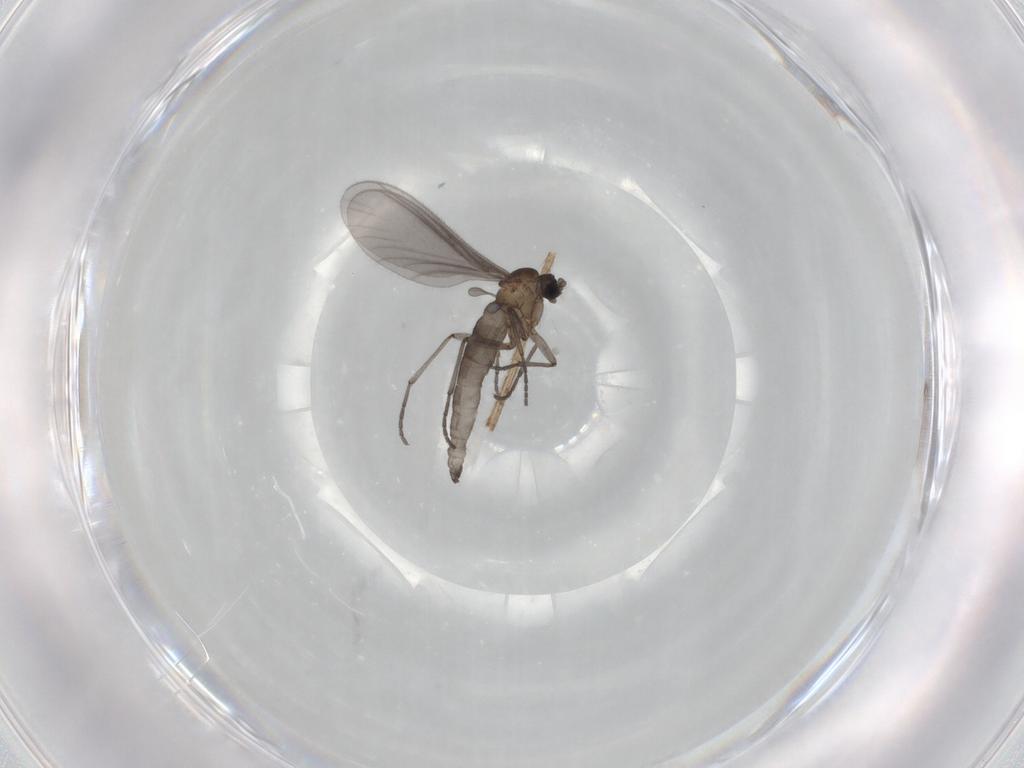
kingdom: Animalia
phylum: Arthropoda
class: Insecta
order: Diptera
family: Sciaridae
